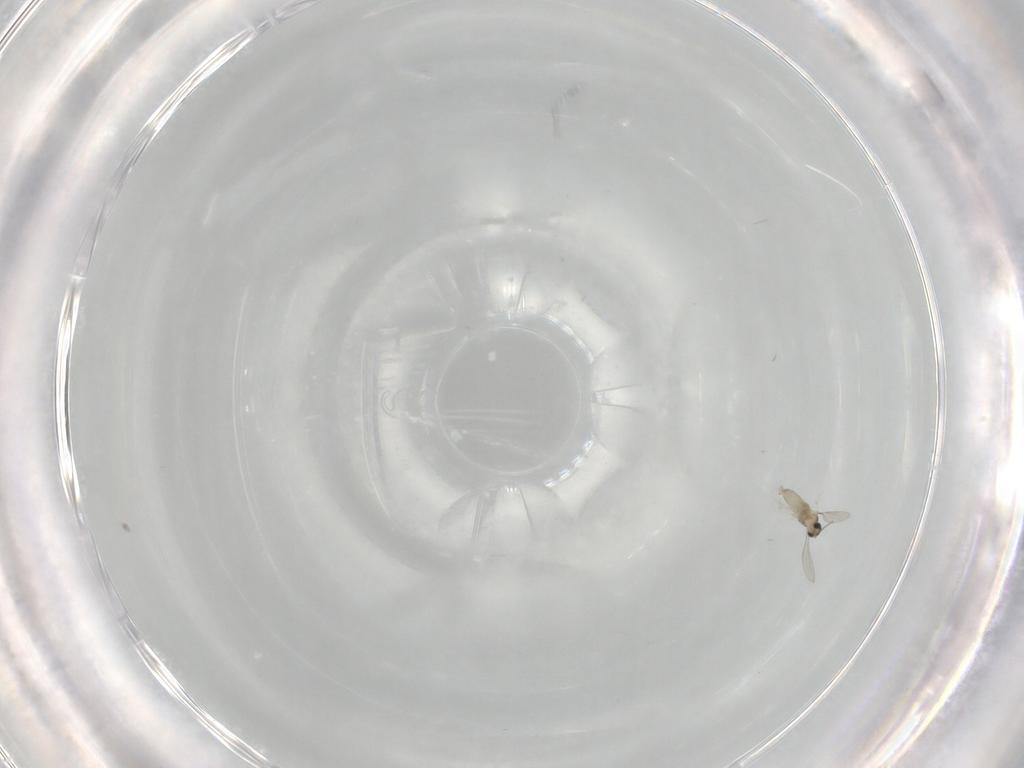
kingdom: Animalia
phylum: Arthropoda
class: Insecta
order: Diptera
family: Cecidomyiidae
